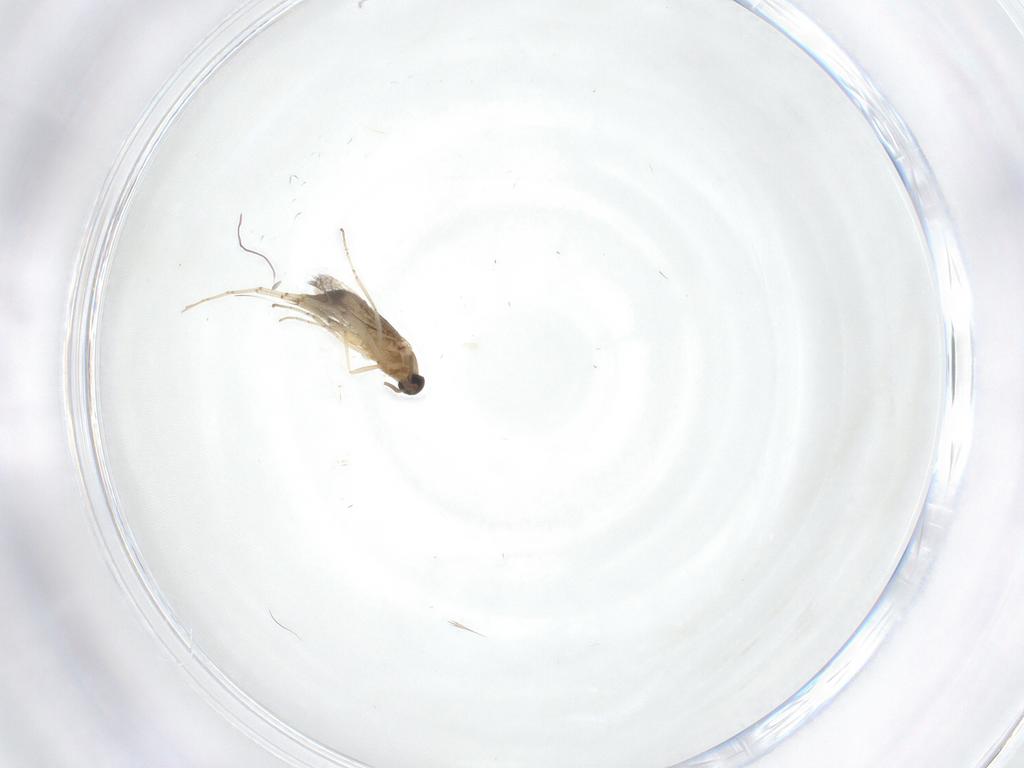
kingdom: Animalia
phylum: Arthropoda
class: Insecta
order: Diptera
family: Cecidomyiidae
